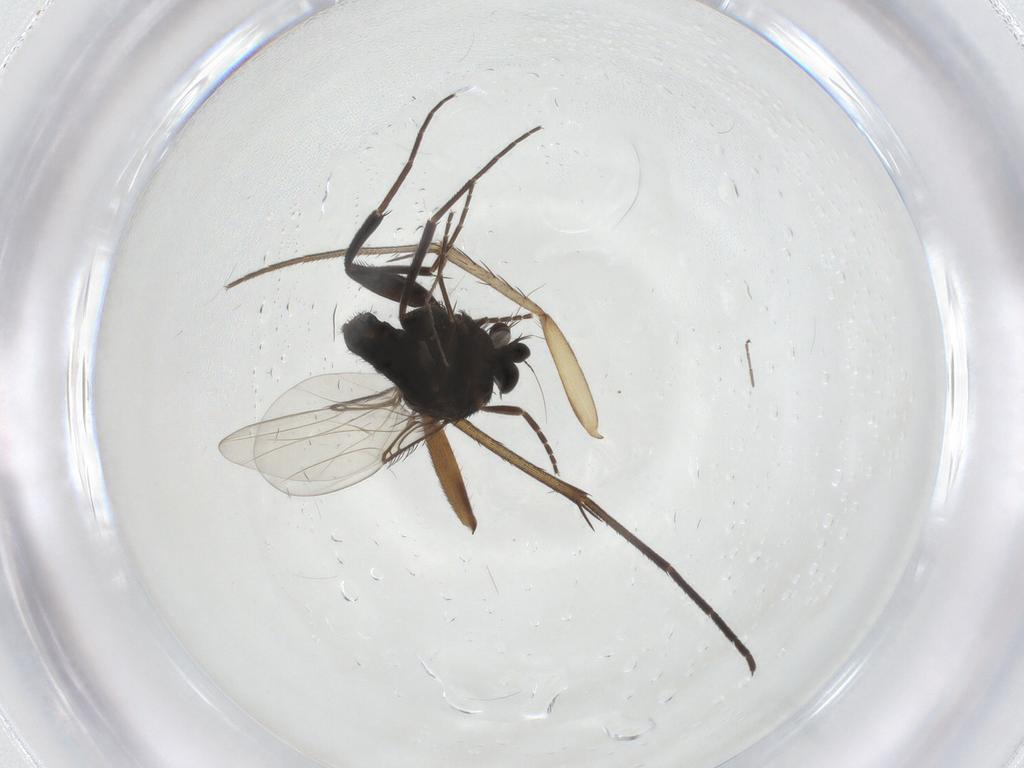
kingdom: Animalia
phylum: Arthropoda
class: Insecta
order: Diptera
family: Phoridae
